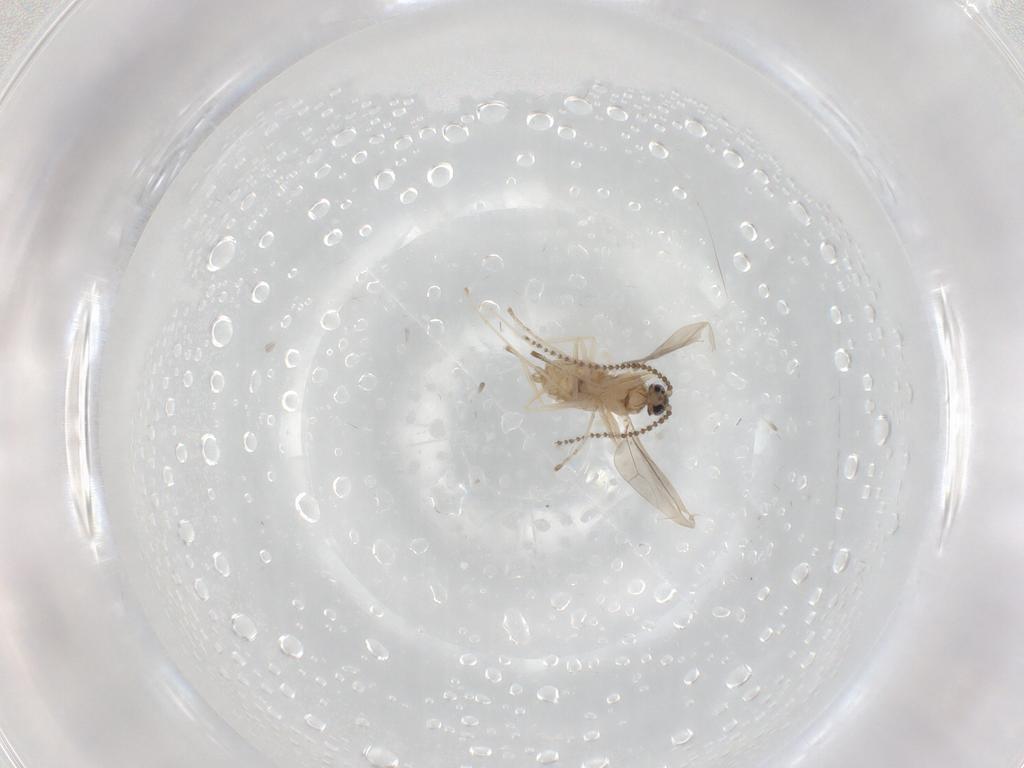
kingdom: Animalia
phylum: Arthropoda
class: Insecta
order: Diptera
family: Cecidomyiidae
